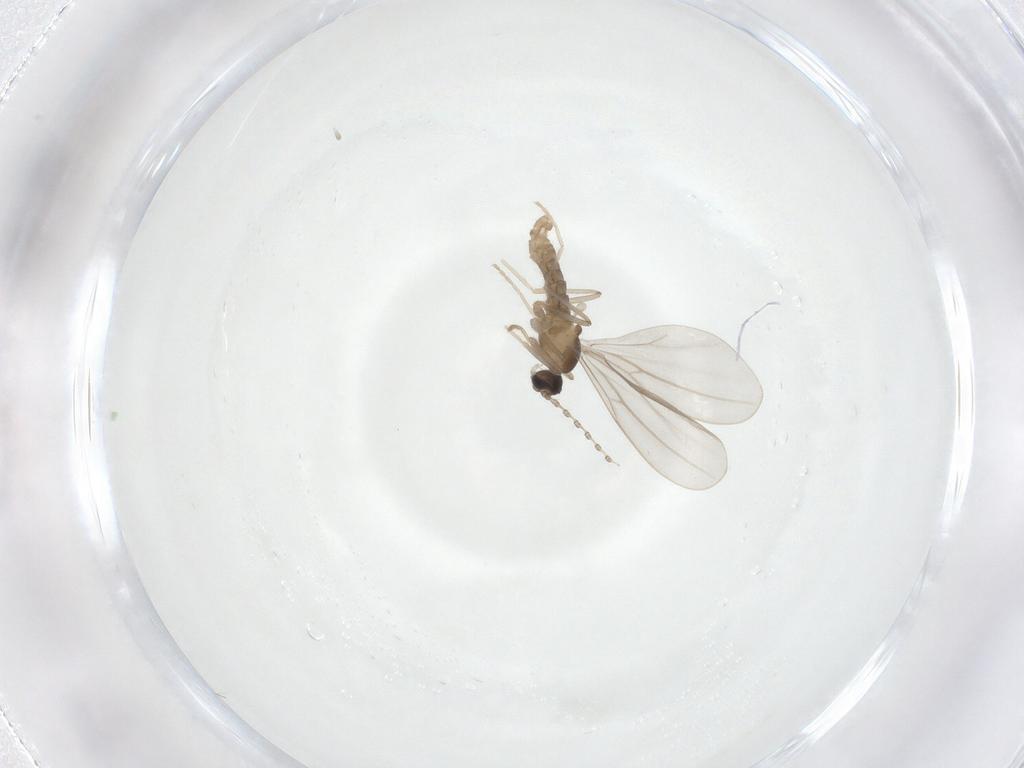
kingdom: Animalia
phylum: Arthropoda
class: Insecta
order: Diptera
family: Cecidomyiidae
